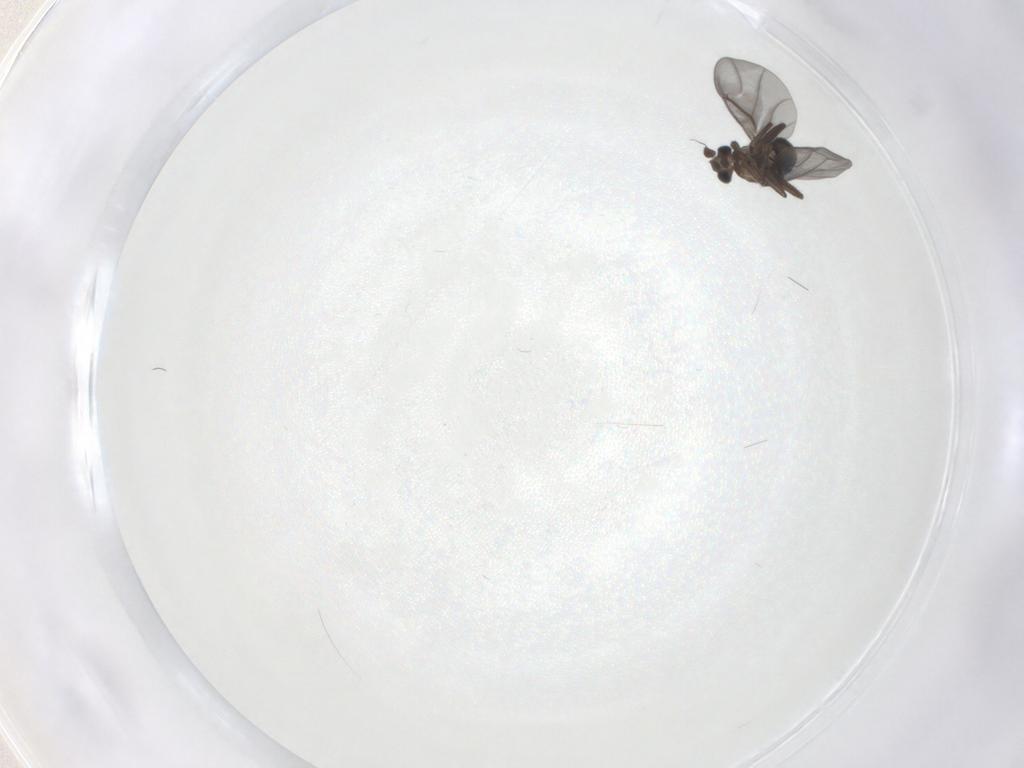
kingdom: Animalia
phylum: Arthropoda
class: Insecta
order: Diptera
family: Phoridae
